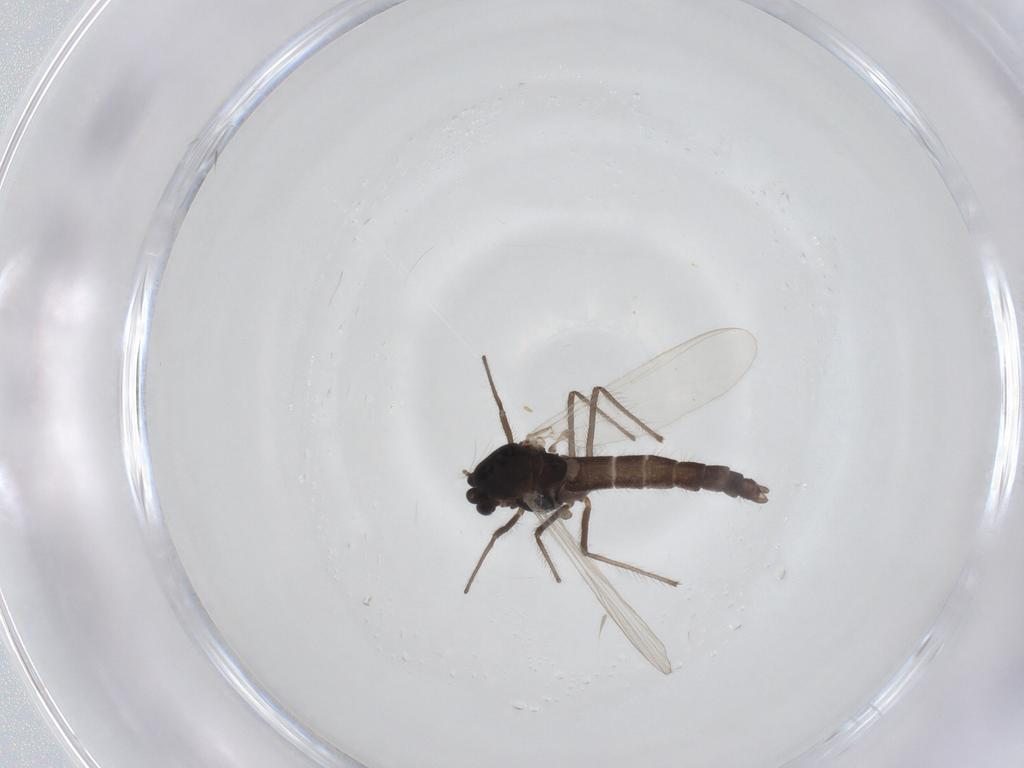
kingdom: Animalia
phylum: Arthropoda
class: Insecta
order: Diptera
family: Chironomidae
